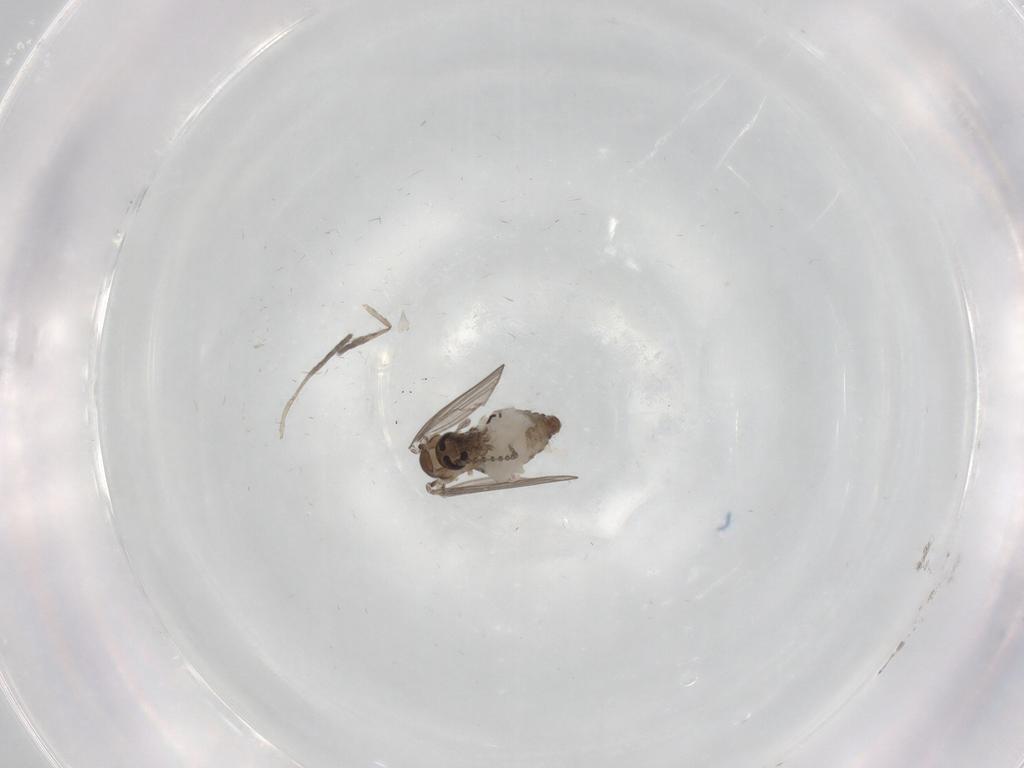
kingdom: Animalia
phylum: Arthropoda
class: Insecta
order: Diptera
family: Psychodidae
